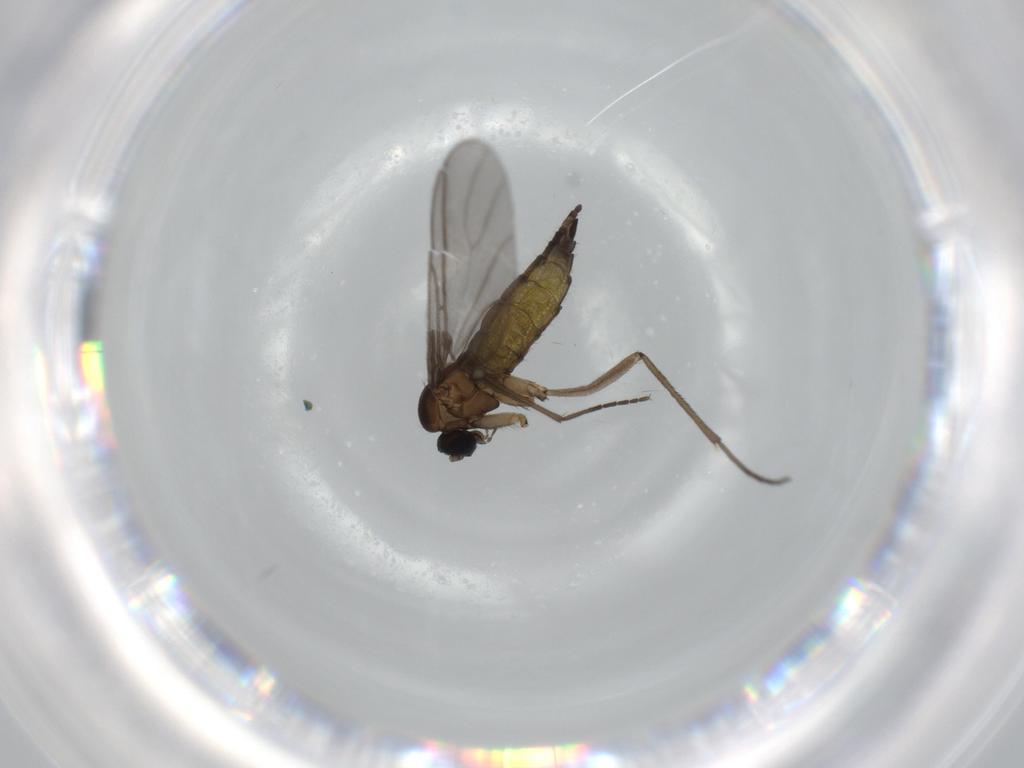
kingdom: Animalia
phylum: Arthropoda
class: Insecta
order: Diptera
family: Sciaridae
